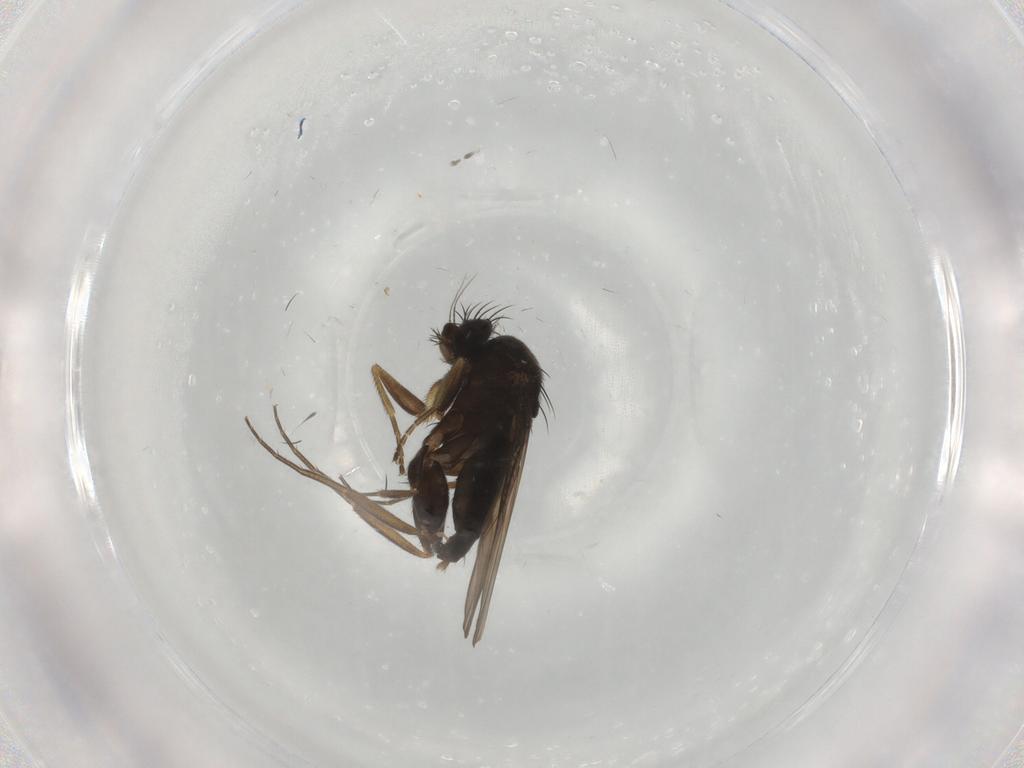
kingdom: Animalia
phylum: Arthropoda
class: Insecta
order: Diptera
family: Phoridae
